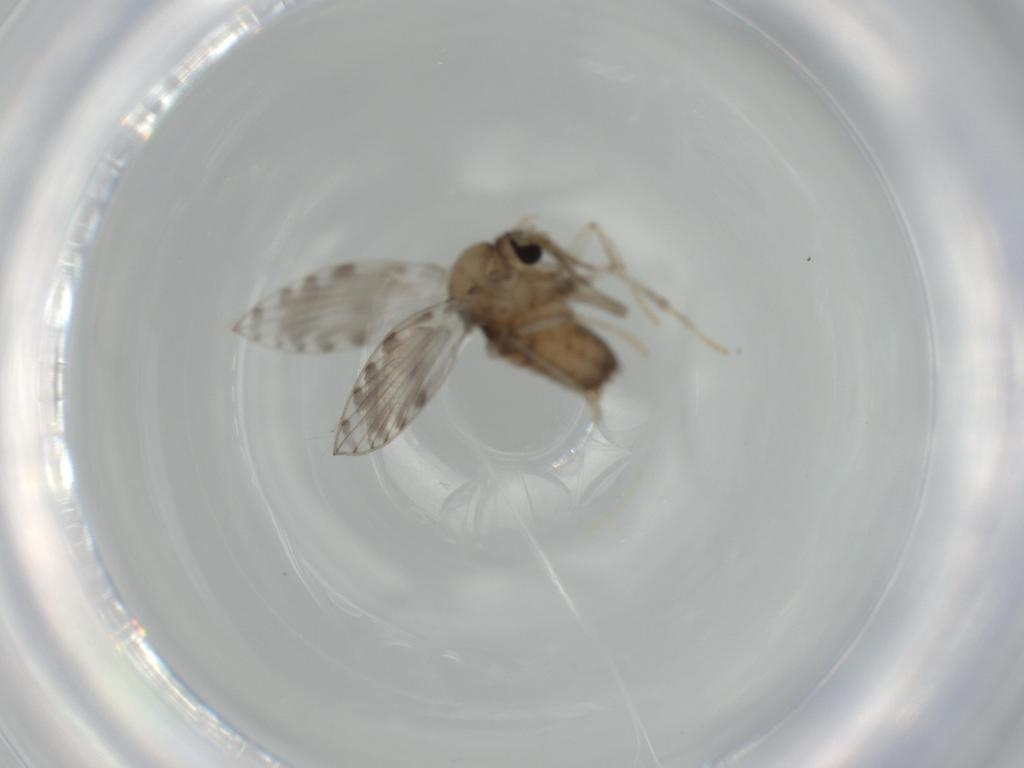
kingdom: Animalia
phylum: Arthropoda
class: Insecta
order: Diptera
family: Psychodidae
